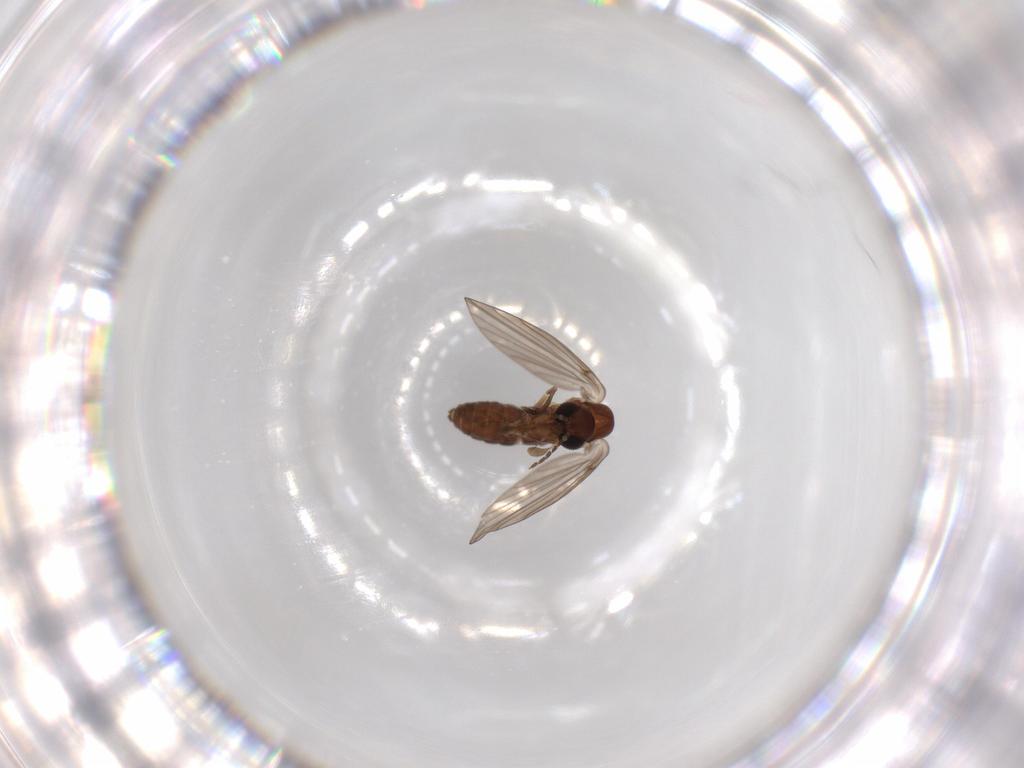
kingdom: Animalia
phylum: Arthropoda
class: Insecta
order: Diptera
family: Psychodidae
